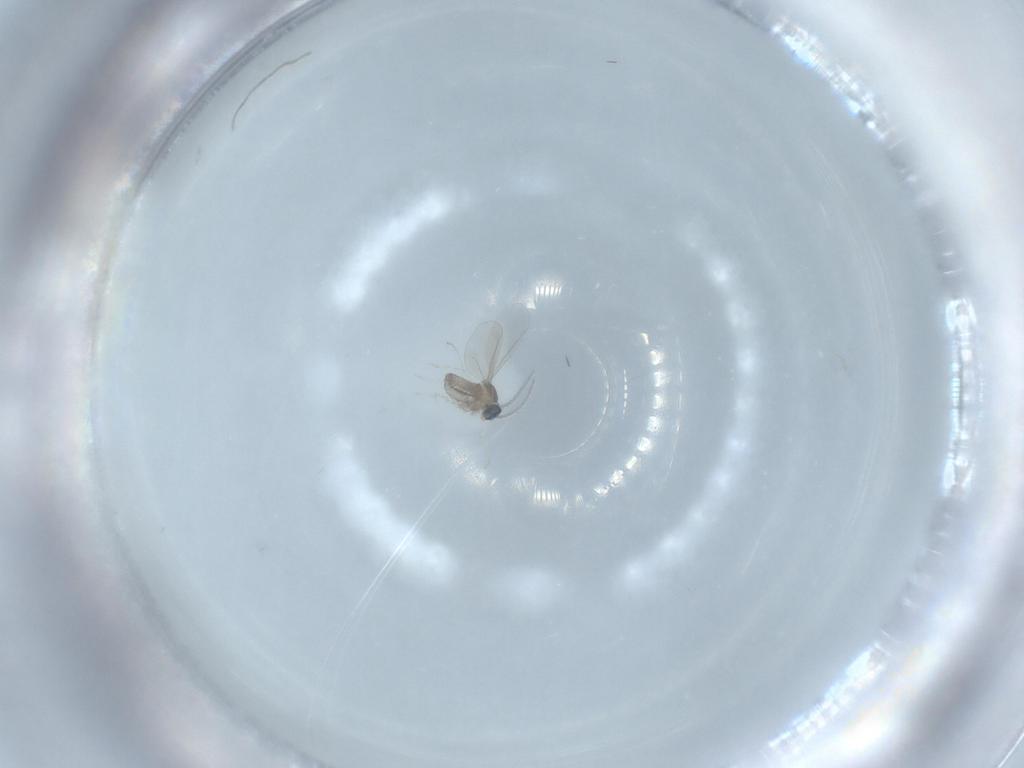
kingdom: Animalia
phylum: Arthropoda
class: Insecta
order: Diptera
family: Cecidomyiidae
